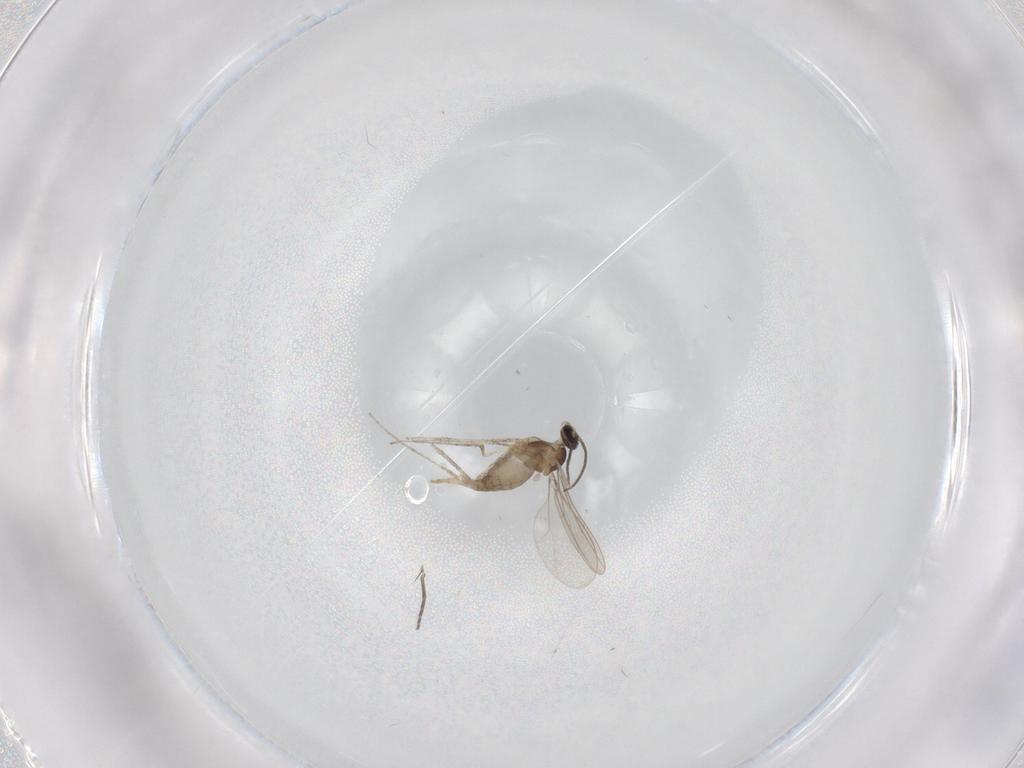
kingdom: Animalia
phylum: Arthropoda
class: Insecta
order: Diptera
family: Phoridae
